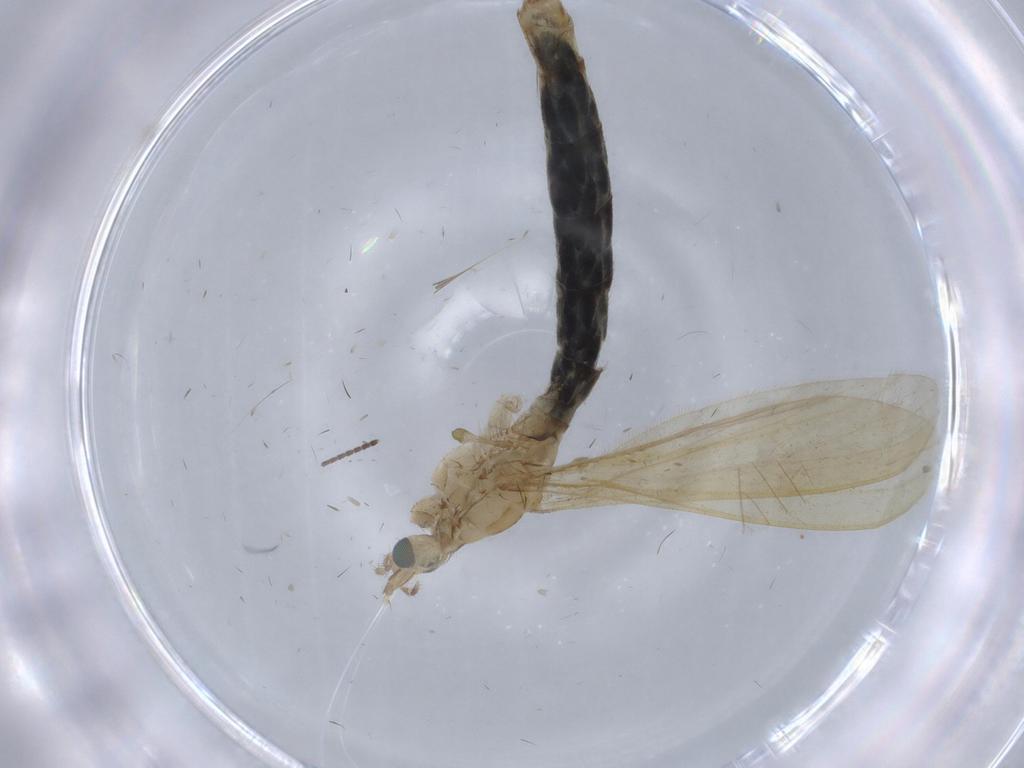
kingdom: Animalia
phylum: Arthropoda
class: Insecta
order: Diptera
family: Limoniidae
